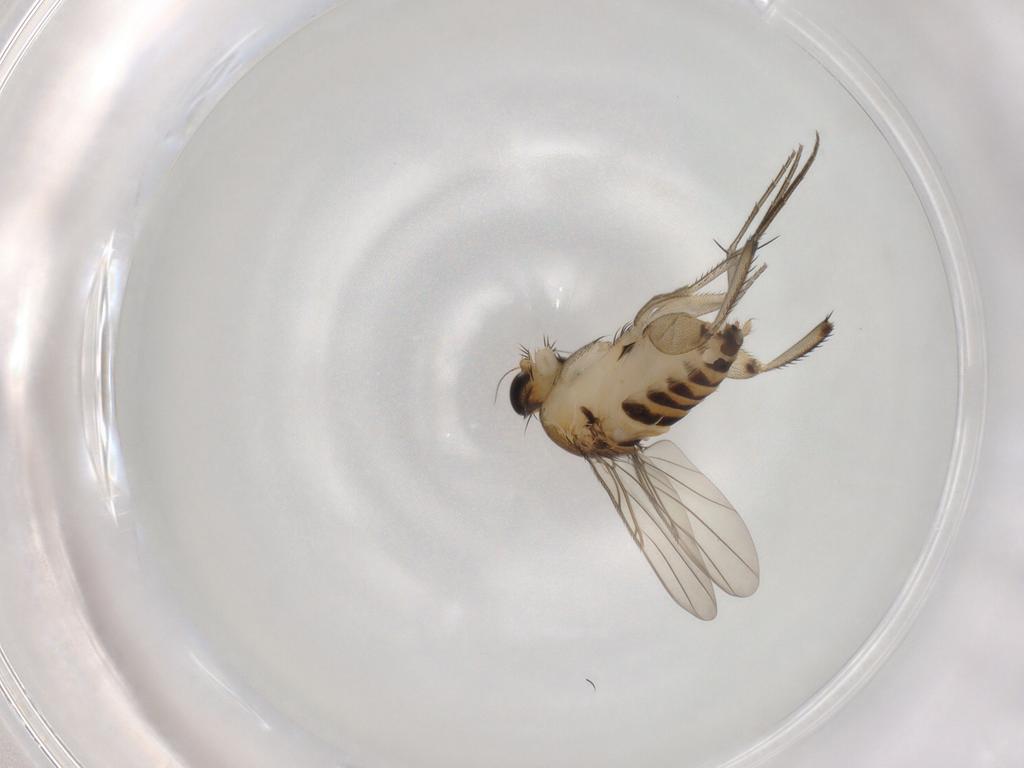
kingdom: Animalia
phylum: Arthropoda
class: Insecta
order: Diptera
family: Phoridae
